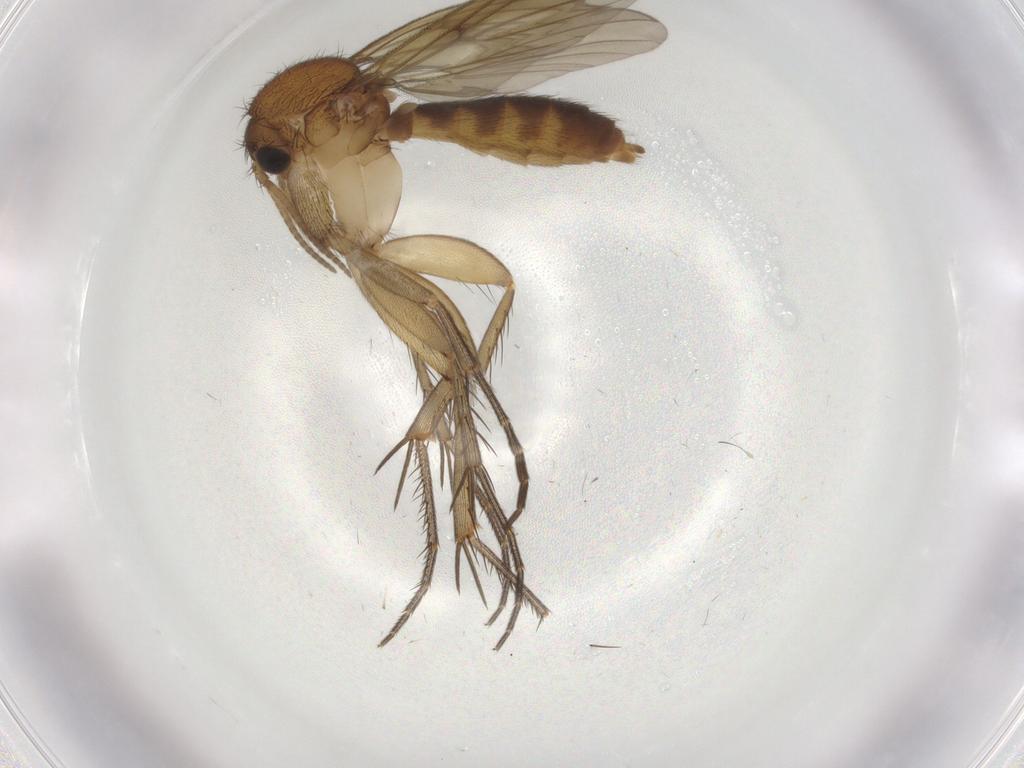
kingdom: Animalia
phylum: Arthropoda
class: Insecta
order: Diptera
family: Mycetophilidae
